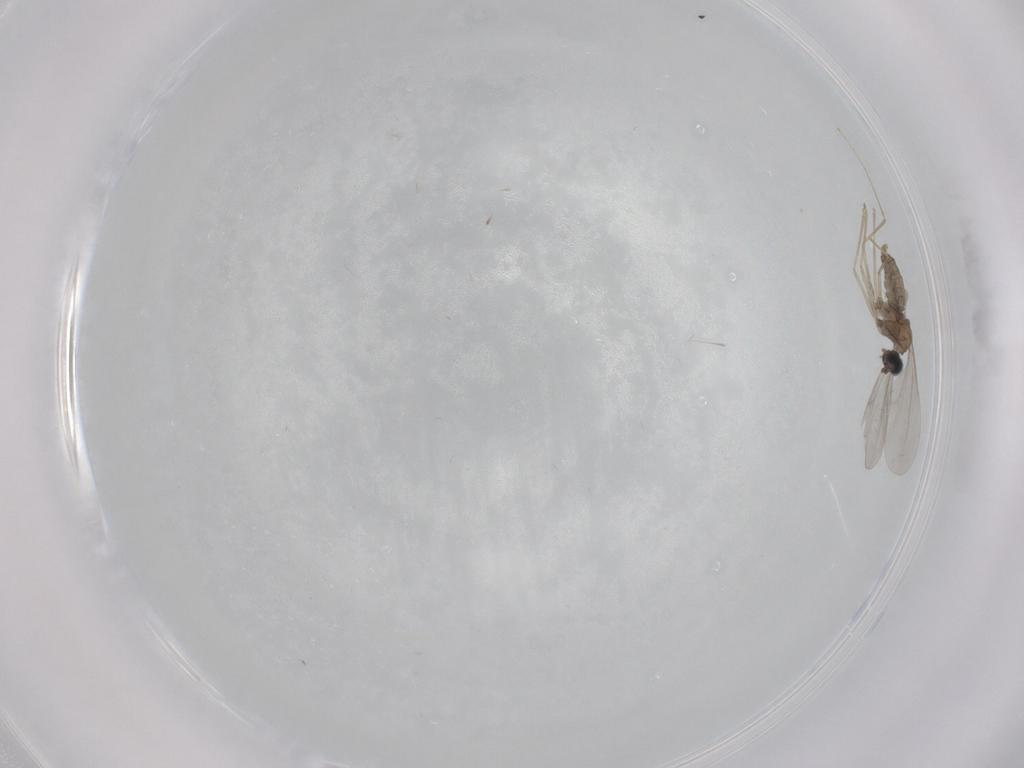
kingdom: Animalia
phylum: Arthropoda
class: Insecta
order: Diptera
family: Cecidomyiidae
